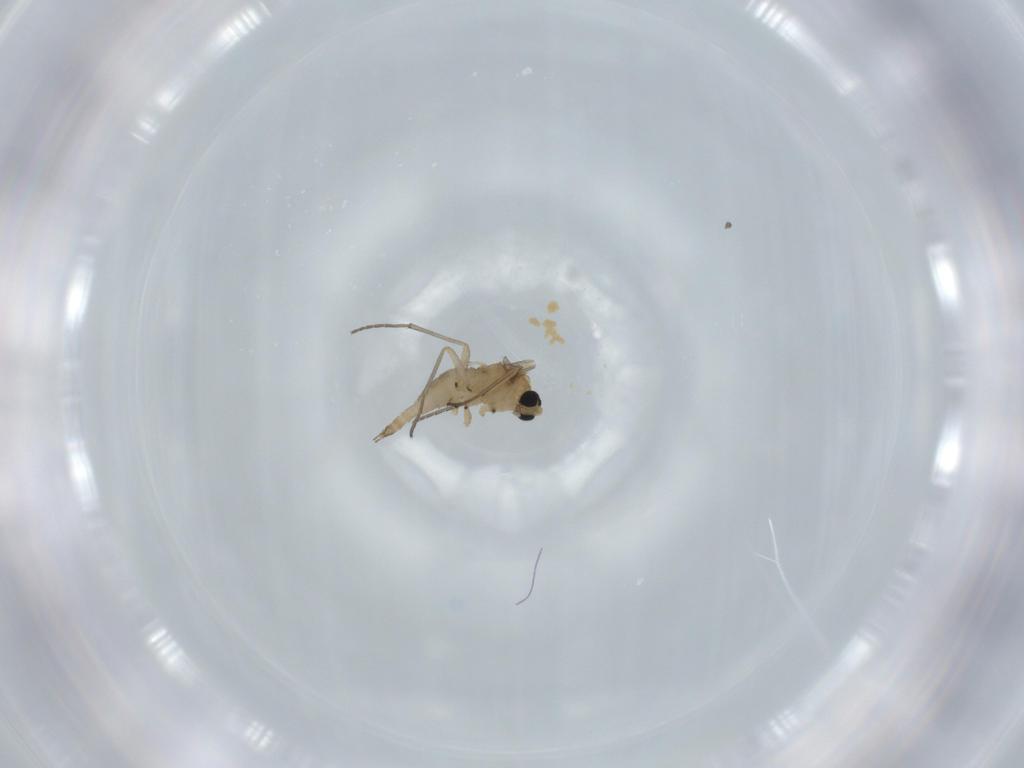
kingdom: Animalia
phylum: Arthropoda
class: Insecta
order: Diptera
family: Sciaridae
